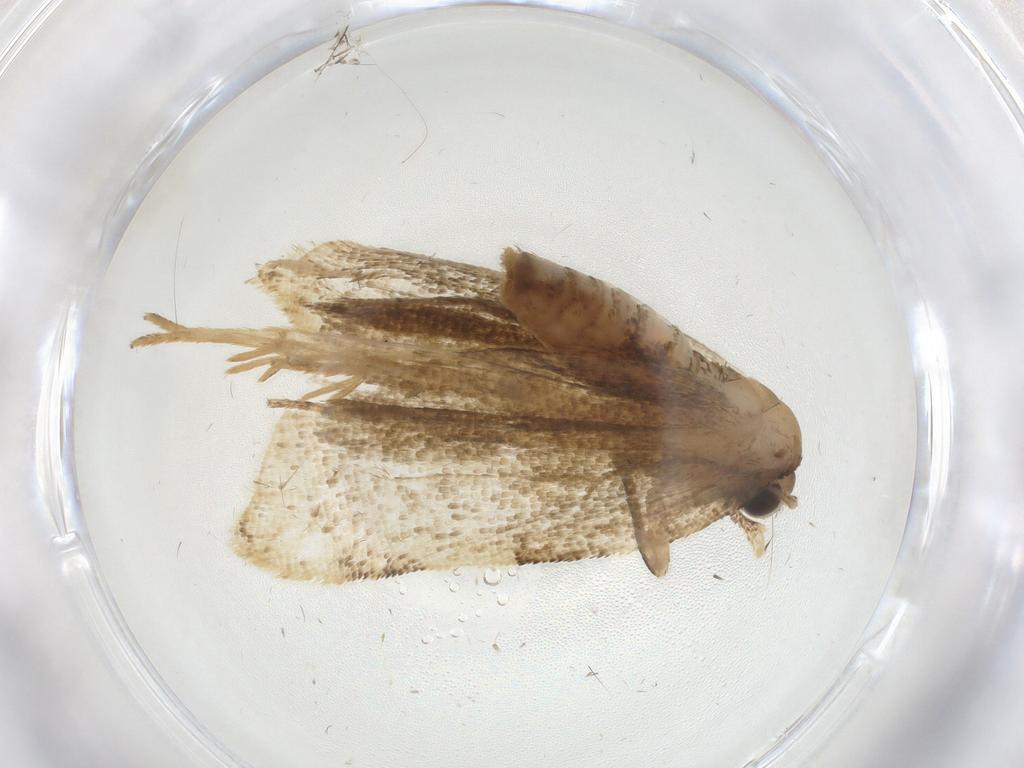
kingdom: Animalia
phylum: Arthropoda
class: Insecta
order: Lepidoptera
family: Tortricidae
